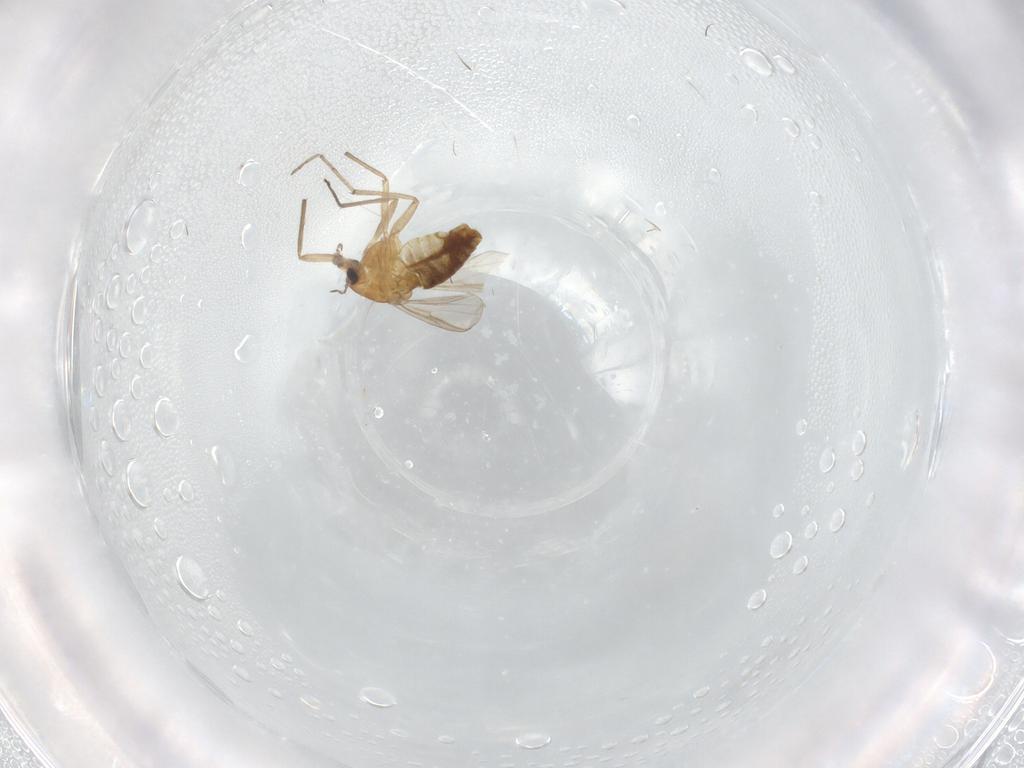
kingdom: Animalia
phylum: Arthropoda
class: Insecta
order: Diptera
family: Chironomidae
